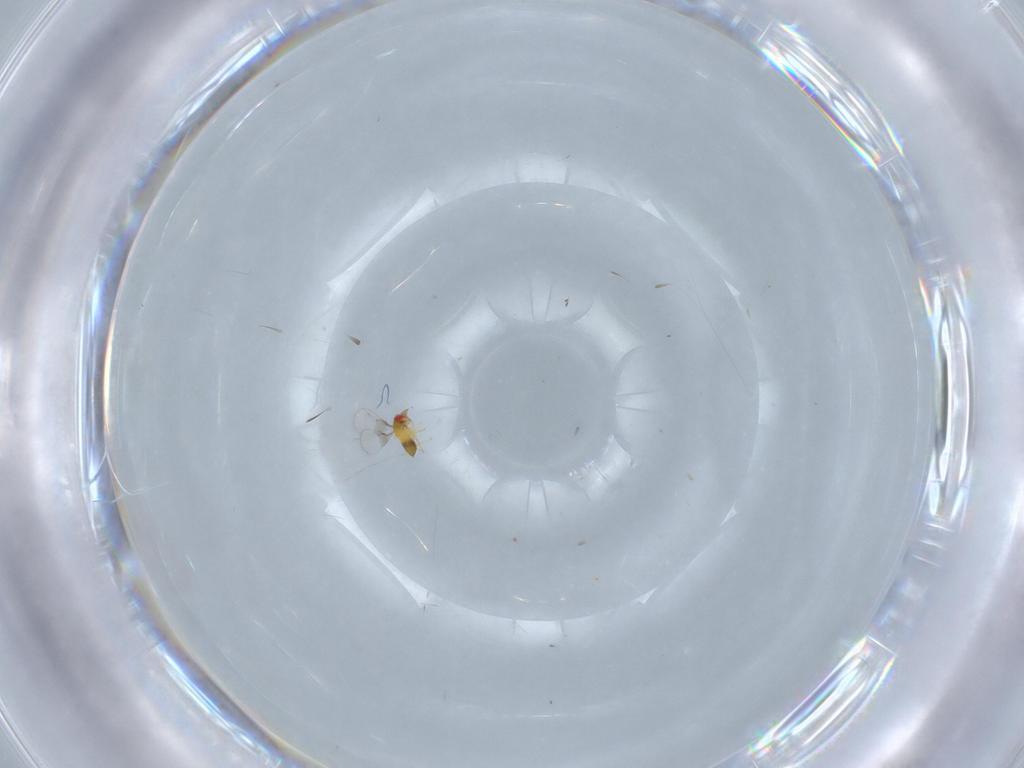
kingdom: Animalia
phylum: Arthropoda
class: Insecta
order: Hymenoptera
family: Trichogrammatidae
